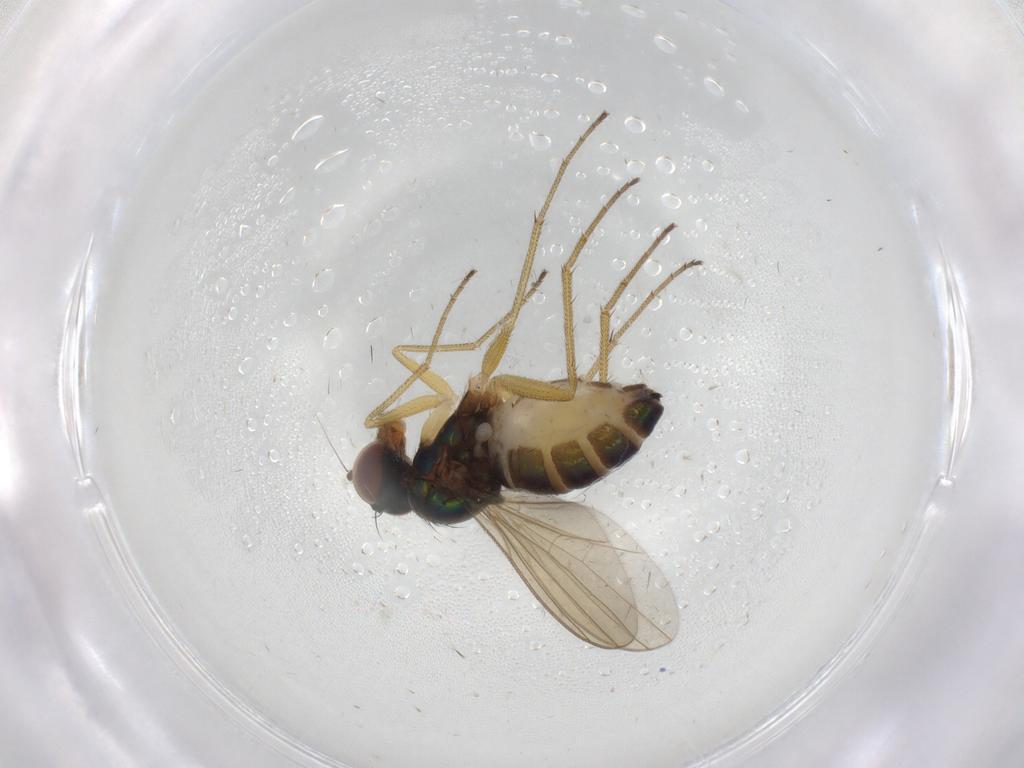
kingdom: Animalia
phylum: Arthropoda
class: Insecta
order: Diptera
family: Dolichopodidae
